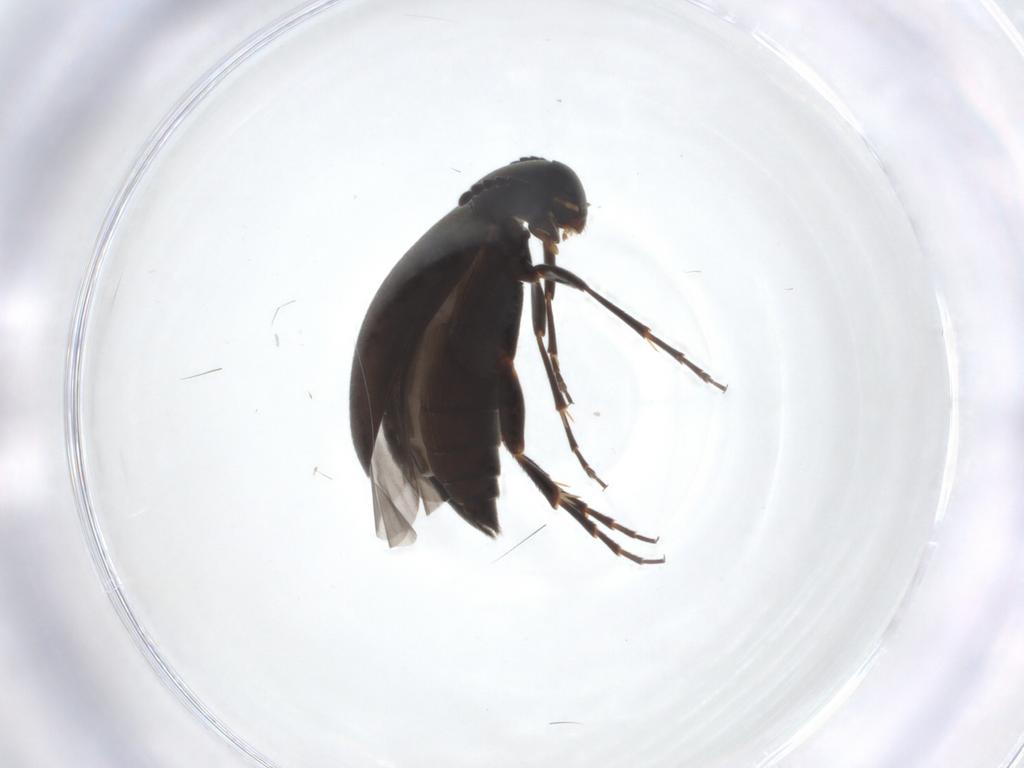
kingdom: Animalia
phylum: Arthropoda
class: Insecta
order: Coleoptera
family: Scraptiidae
